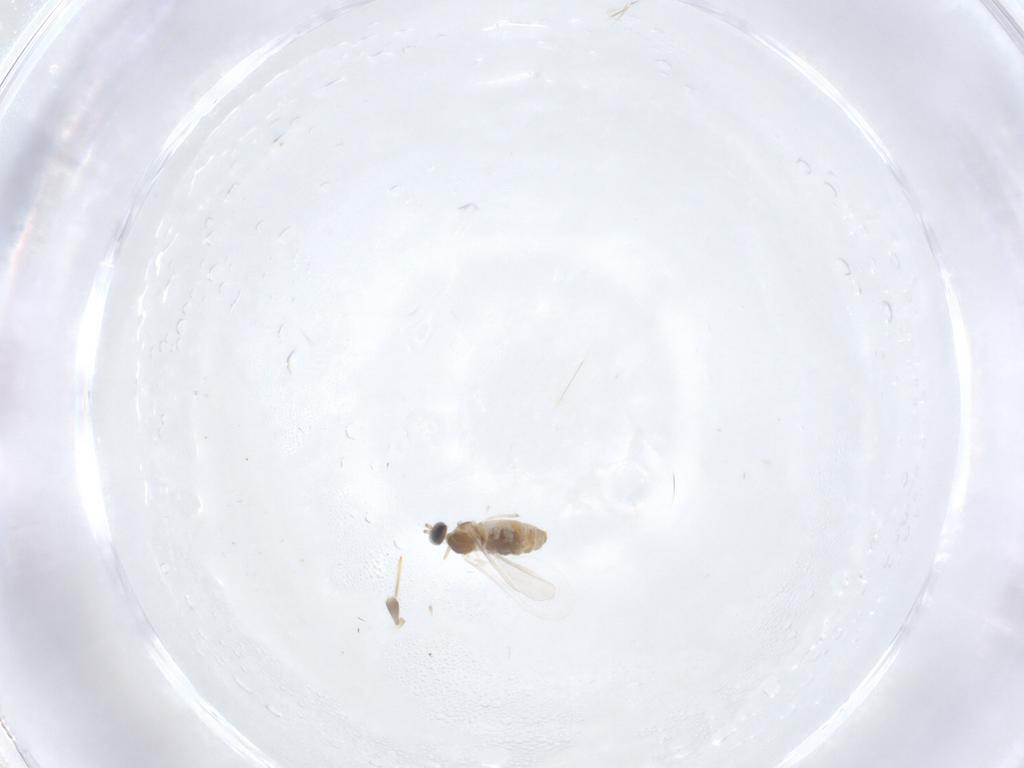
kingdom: Animalia
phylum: Arthropoda
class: Insecta
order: Diptera
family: Cecidomyiidae
